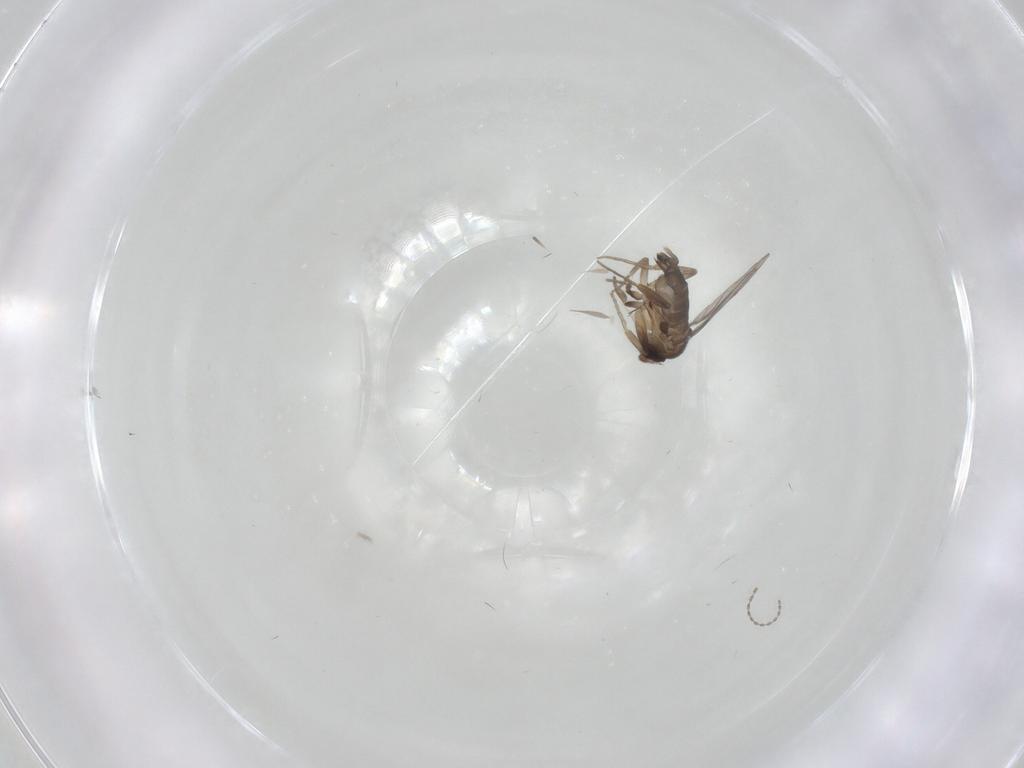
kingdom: Animalia
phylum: Arthropoda
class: Insecta
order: Diptera
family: Phoridae
